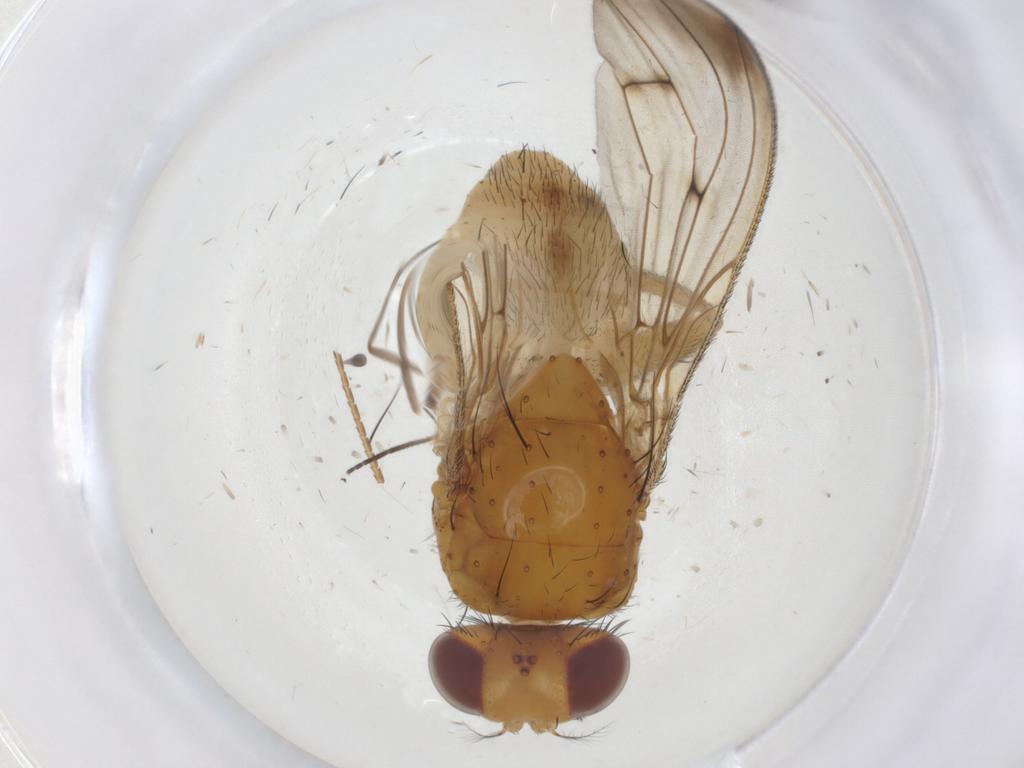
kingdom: Animalia
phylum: Arthropoda
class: Insecta
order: Diptera
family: Sciaridae
